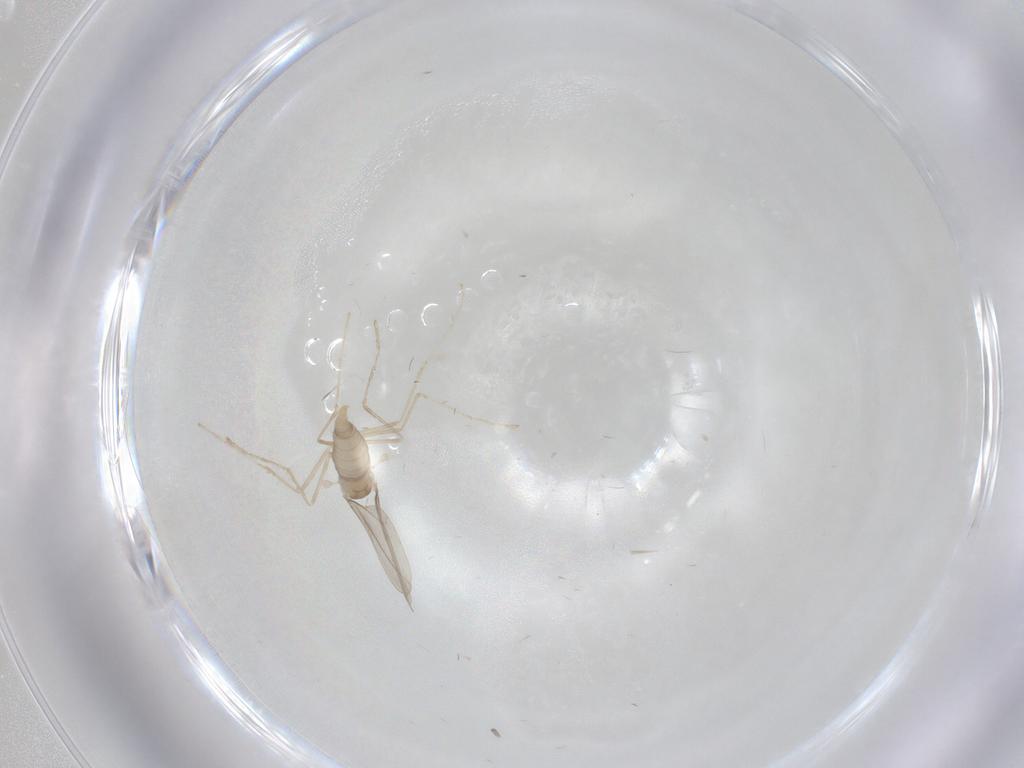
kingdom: Animalia
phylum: Arthropoda
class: Insecta
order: Diptera
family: Cecidomyiidae
